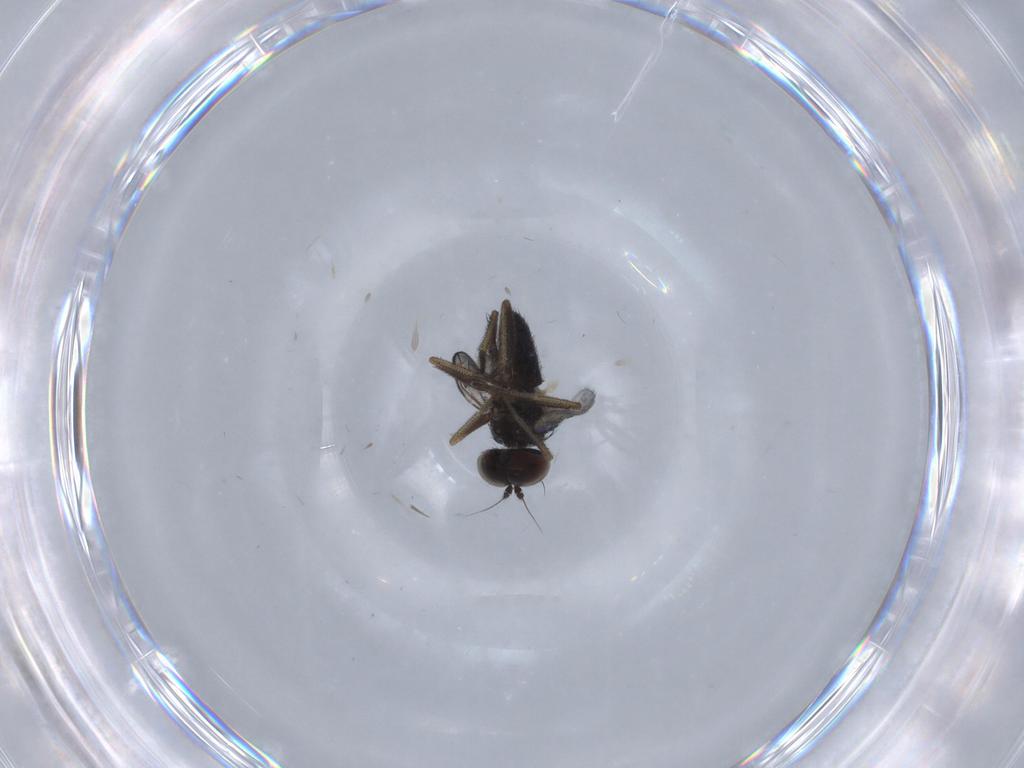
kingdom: Animalia
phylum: Arthropoda
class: Insecta
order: Diptera
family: Dolichopodidae
